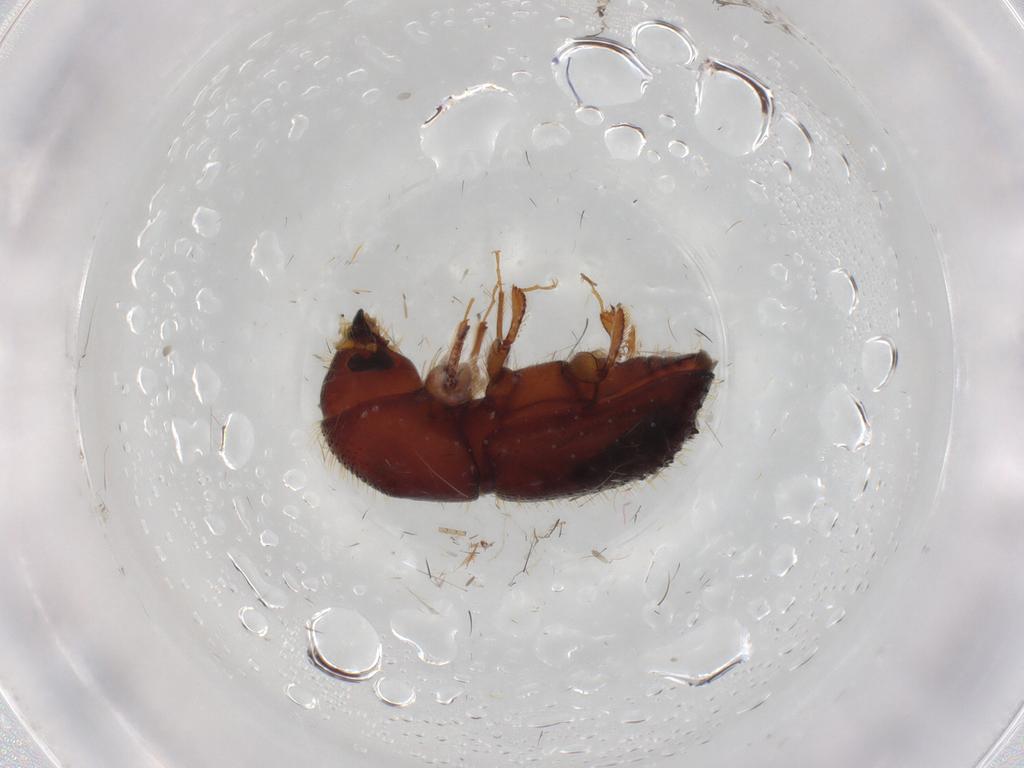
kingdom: Animalia
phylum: Arthropoda
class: Insecta
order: Coleoptera
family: Curculionidae
